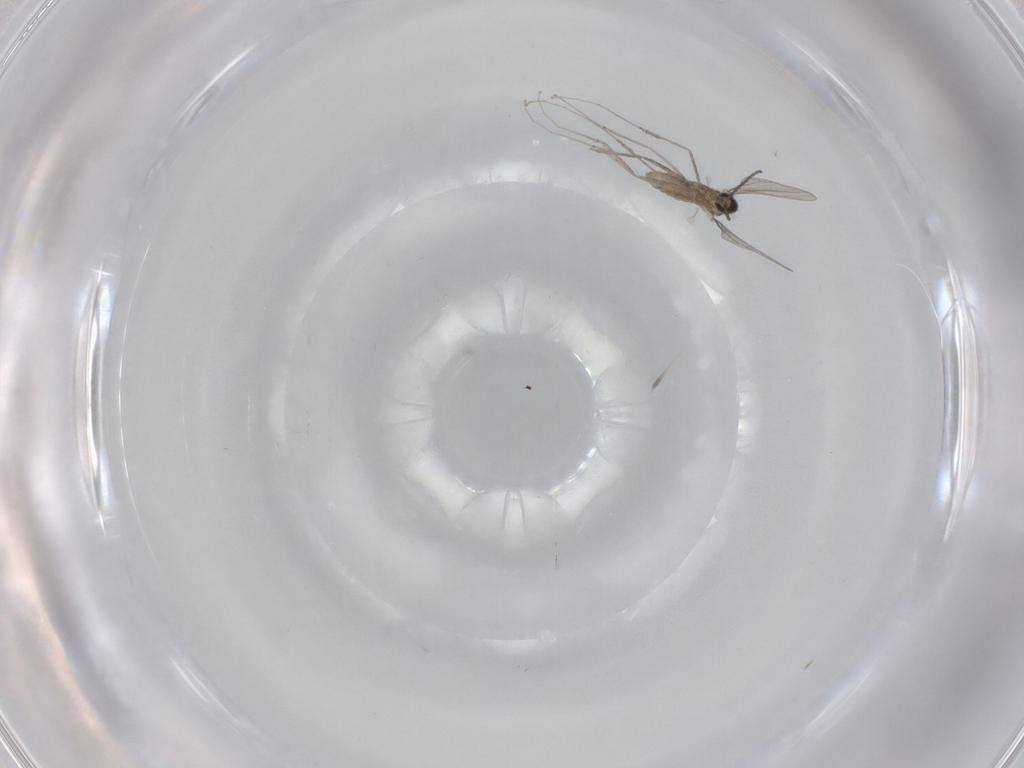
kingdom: Animalia
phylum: Arthropoda
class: Insecta
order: Diptera
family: Cecidomyiidae
